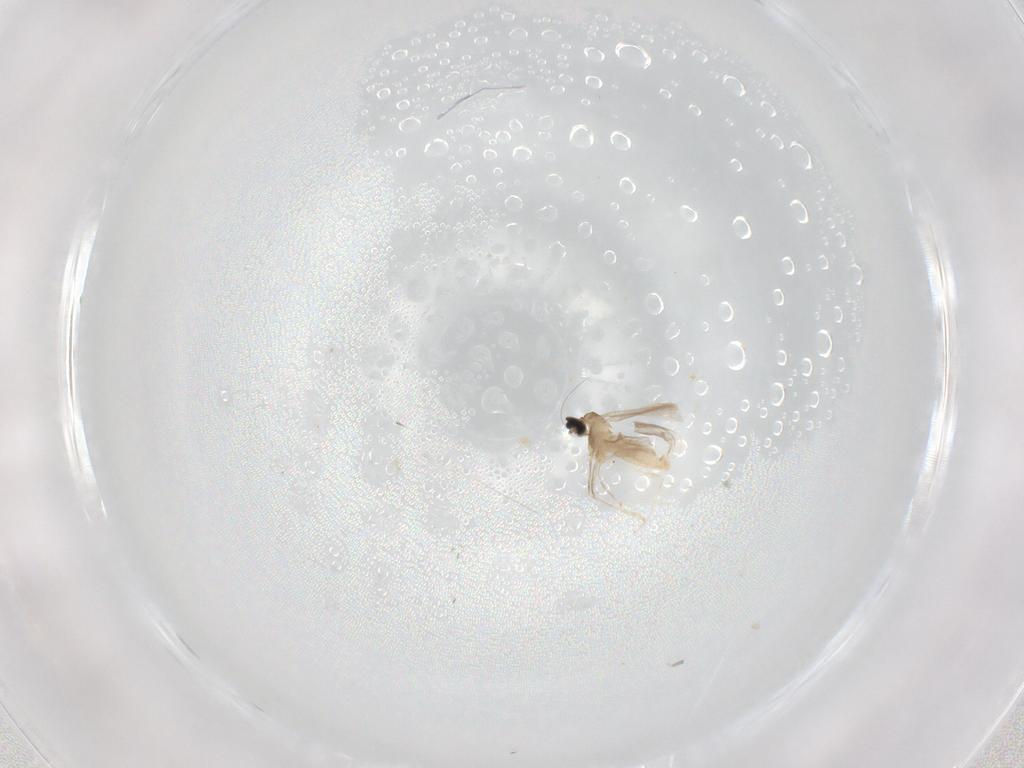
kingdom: Animalia
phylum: Arthropoda
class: Insecta
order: Diptera
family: Cecidomyiidae
